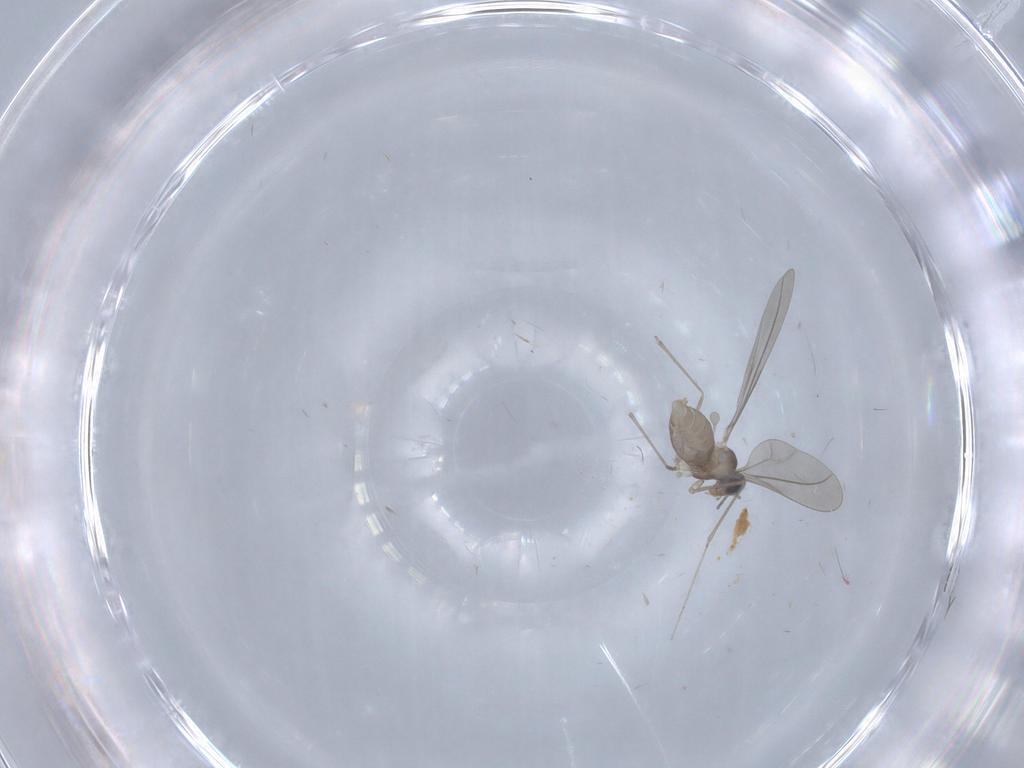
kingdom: Animalia
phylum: Arthropoda
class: Insecta
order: Diptera
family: Cecidomyiidae
